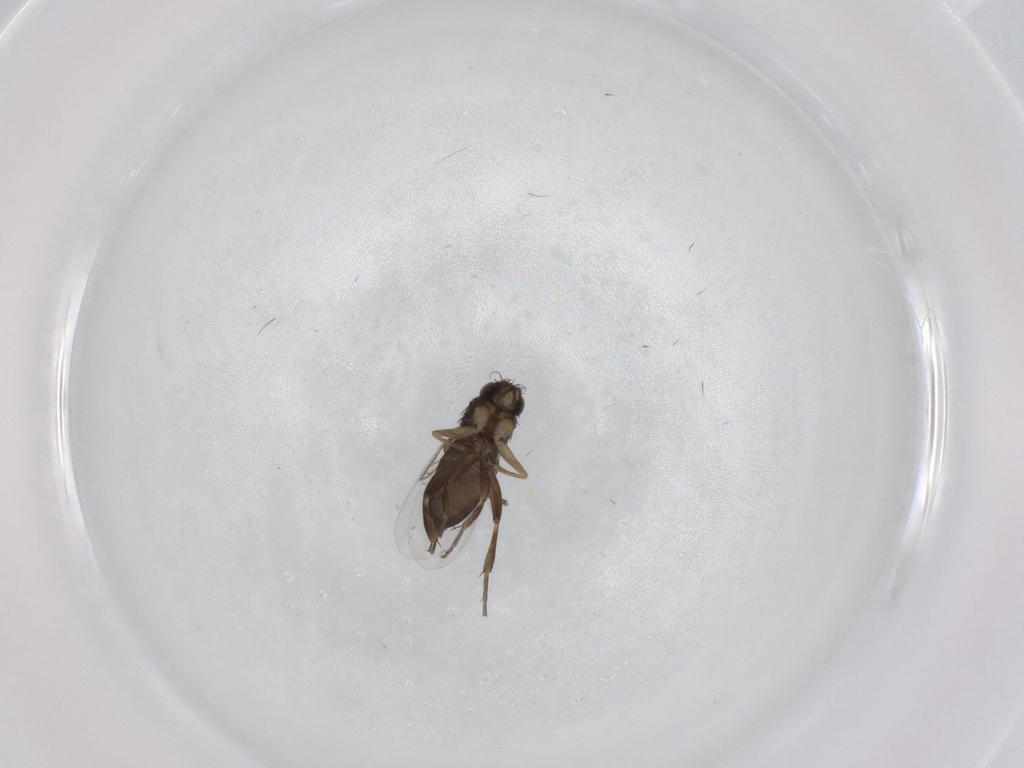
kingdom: Animalia
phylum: Arthropoda
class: Insecta
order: Diptera
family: Phoridae
